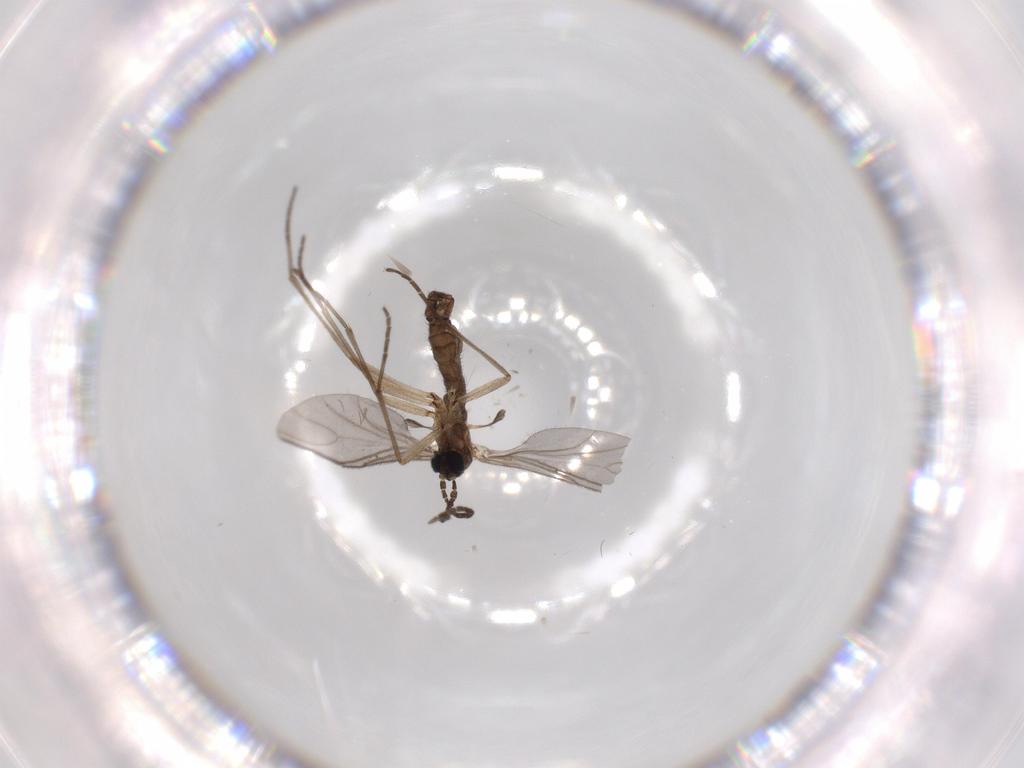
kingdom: Animalia
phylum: Arthropoda
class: Insecta
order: Diptera
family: Sciaridae
